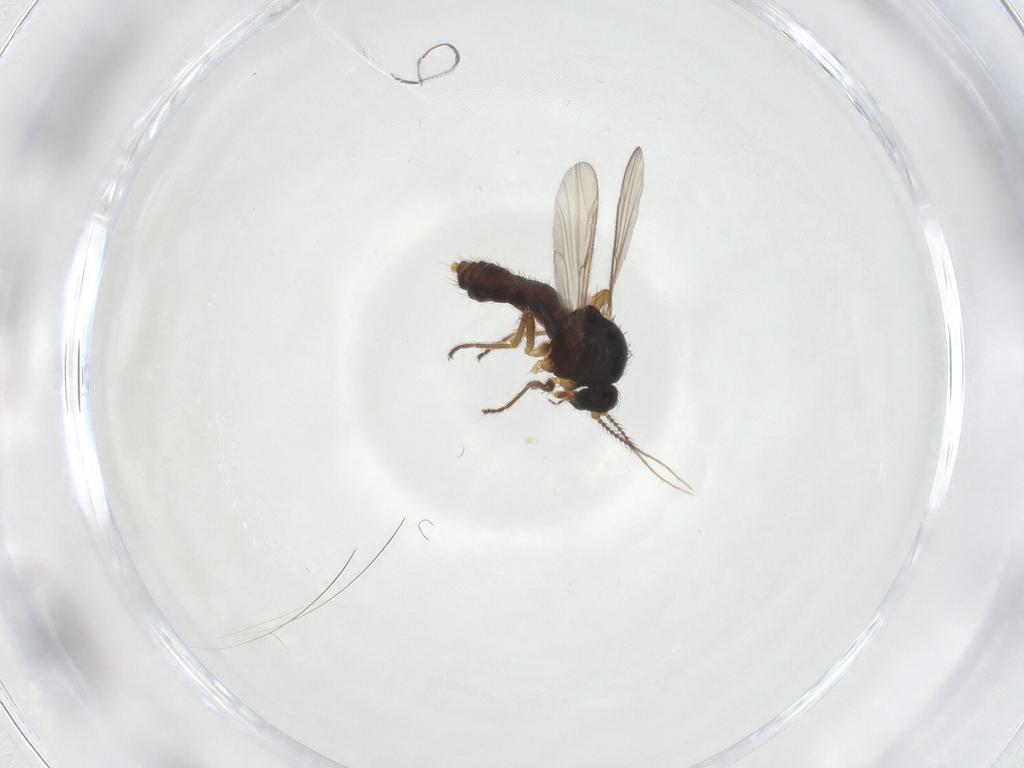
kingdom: Animalia
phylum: Arthropoda
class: Insecta
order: Diptera
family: Ceratopogonidae
